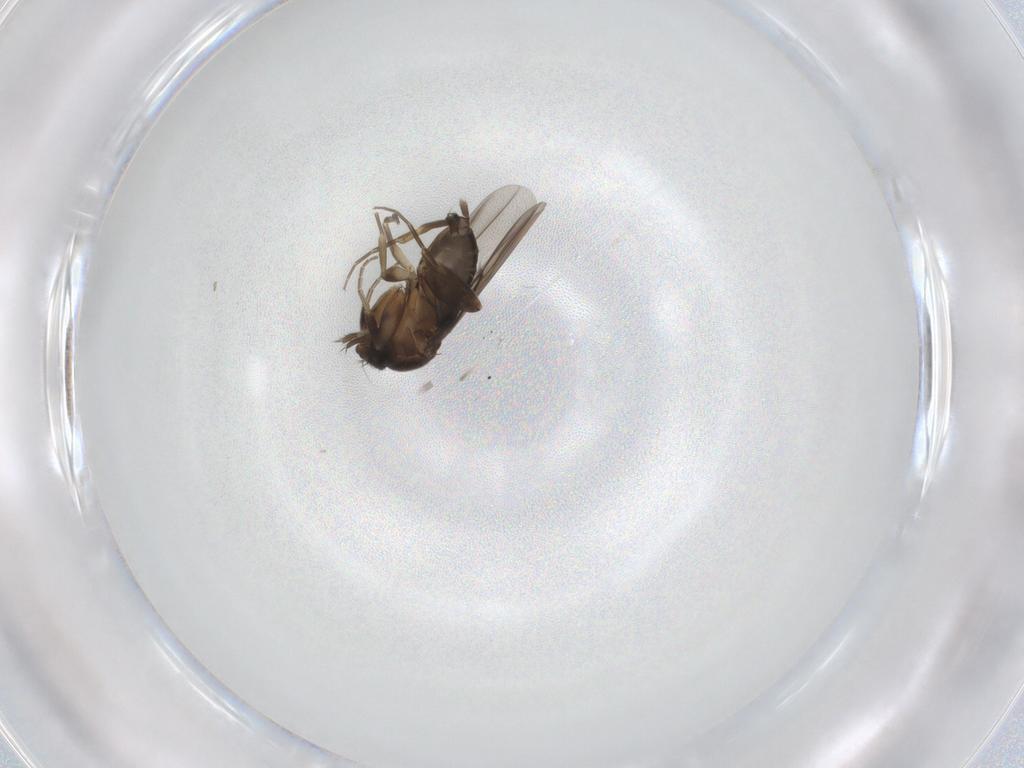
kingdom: Animalia
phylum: Arthropoda
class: Insecta
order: Diptera
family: Phoridae
